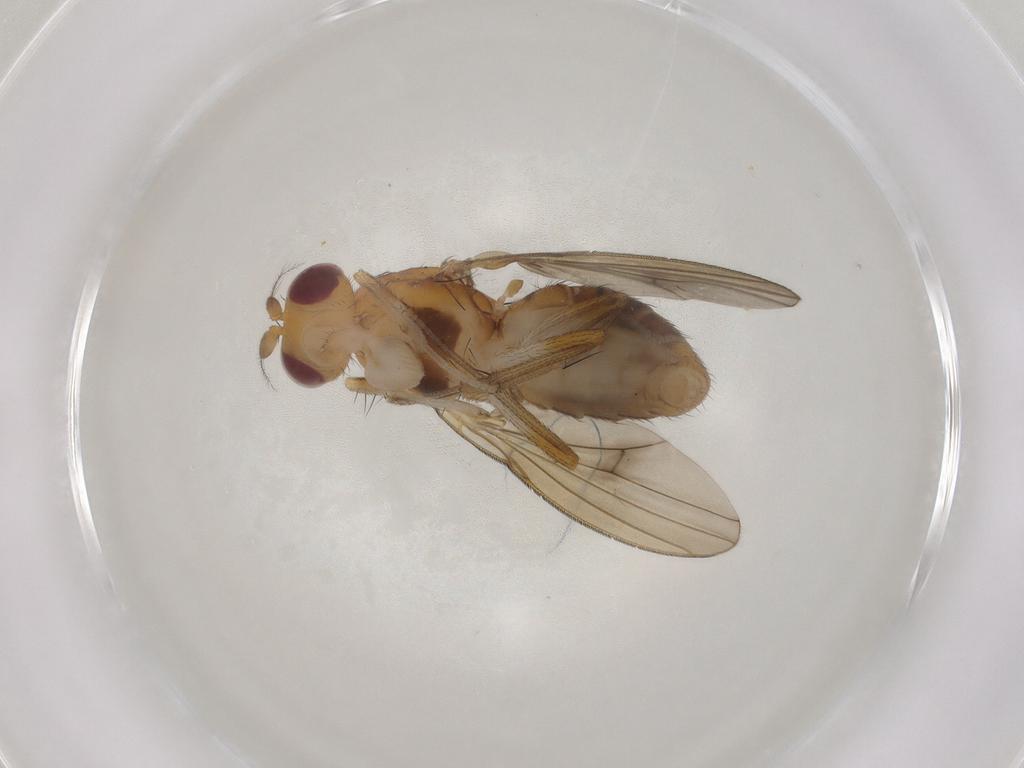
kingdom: Animalia
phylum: Arthropoda
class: Insecta
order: Diptera
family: Lauxaniidae
